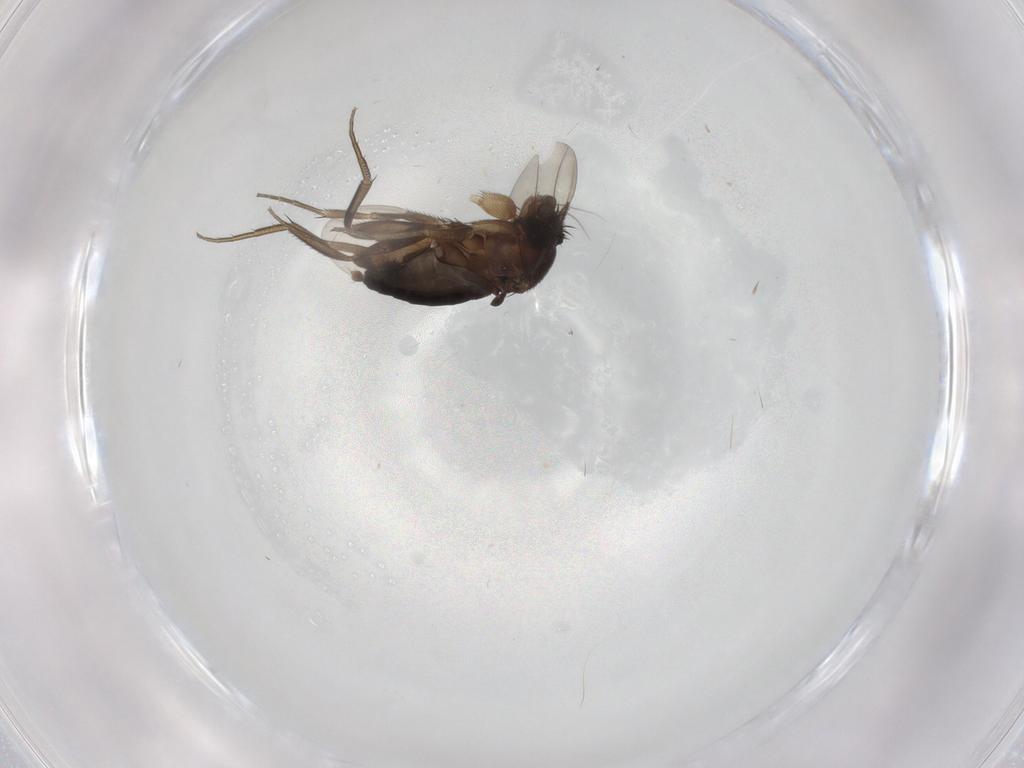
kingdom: Animalia
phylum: Arthropoda
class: Insecta
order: Diptera
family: Phoridae
